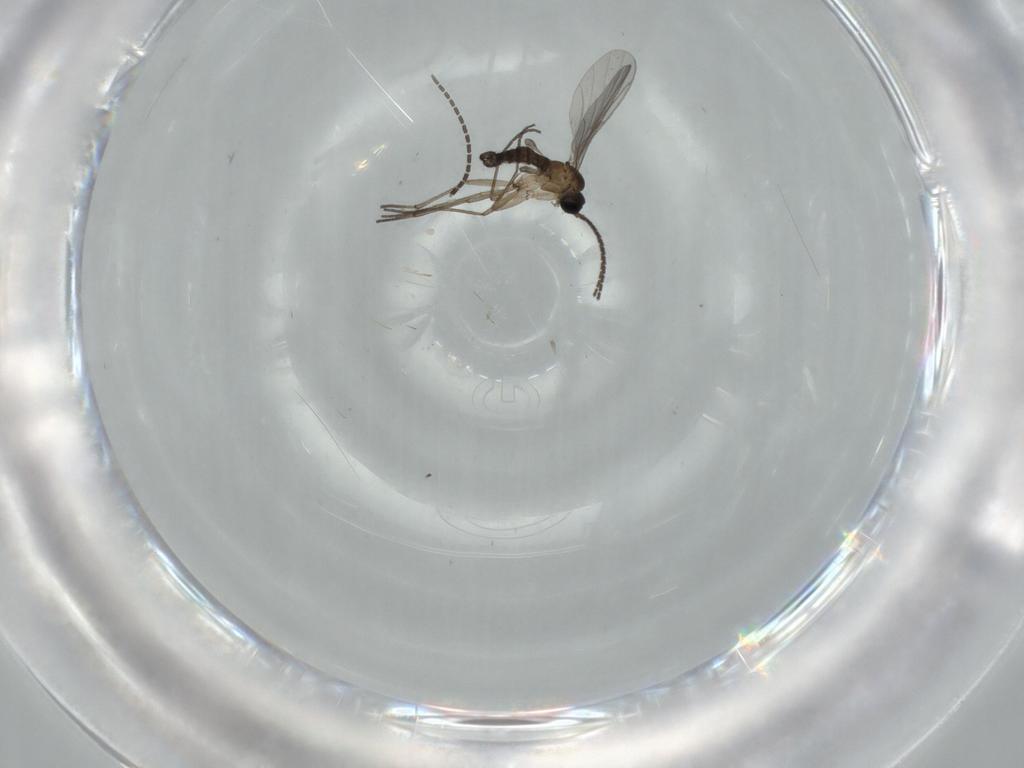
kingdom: Animalia
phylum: Arthropoda
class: Insecta
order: Diptera
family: Sciaridae
